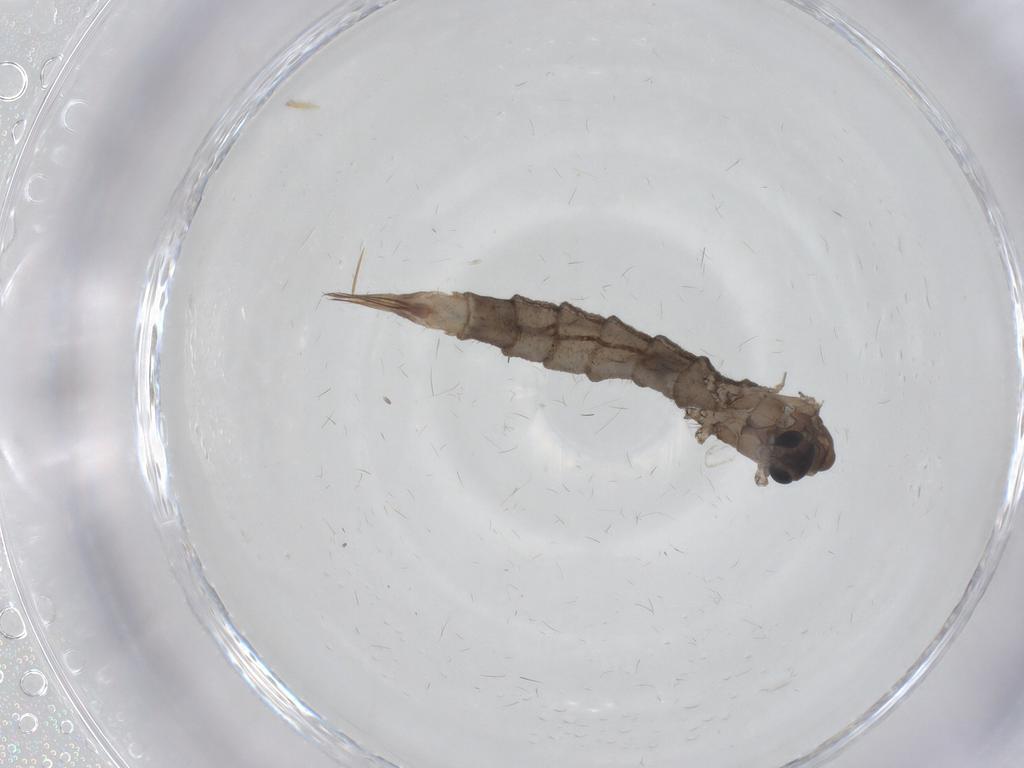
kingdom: Animalia
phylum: Arthropoda
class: Insecta
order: Diptera
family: Limoniidae
